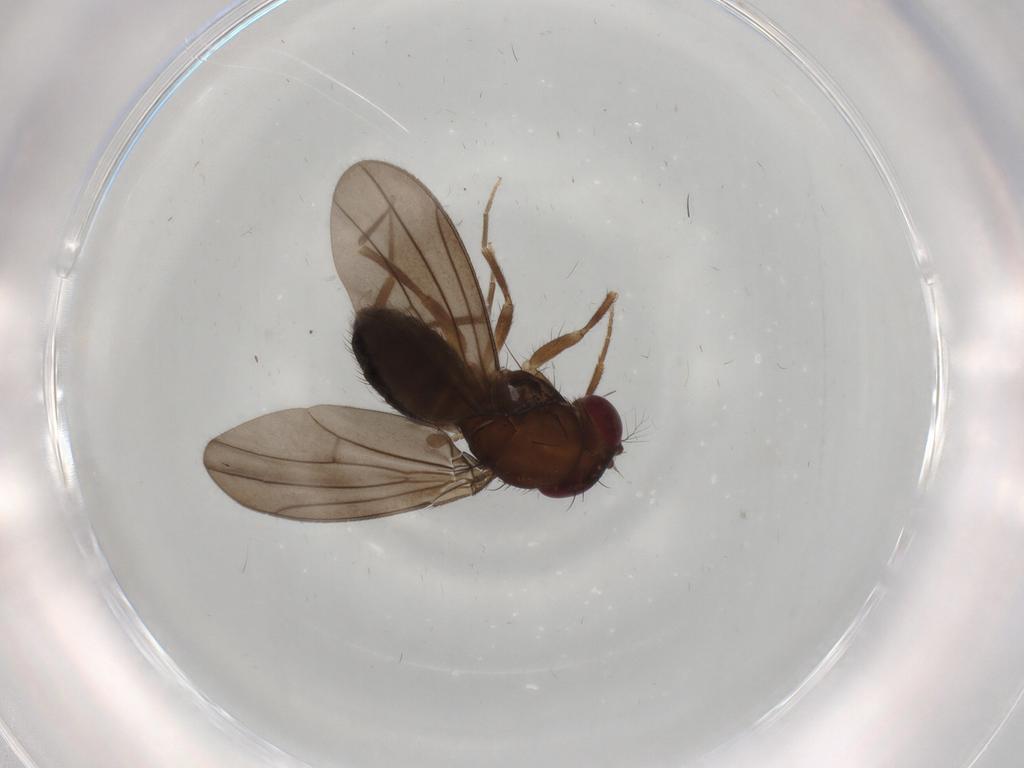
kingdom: Animalia
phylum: Arthropoda
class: Insecta
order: Diptera
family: Drosophilidae
